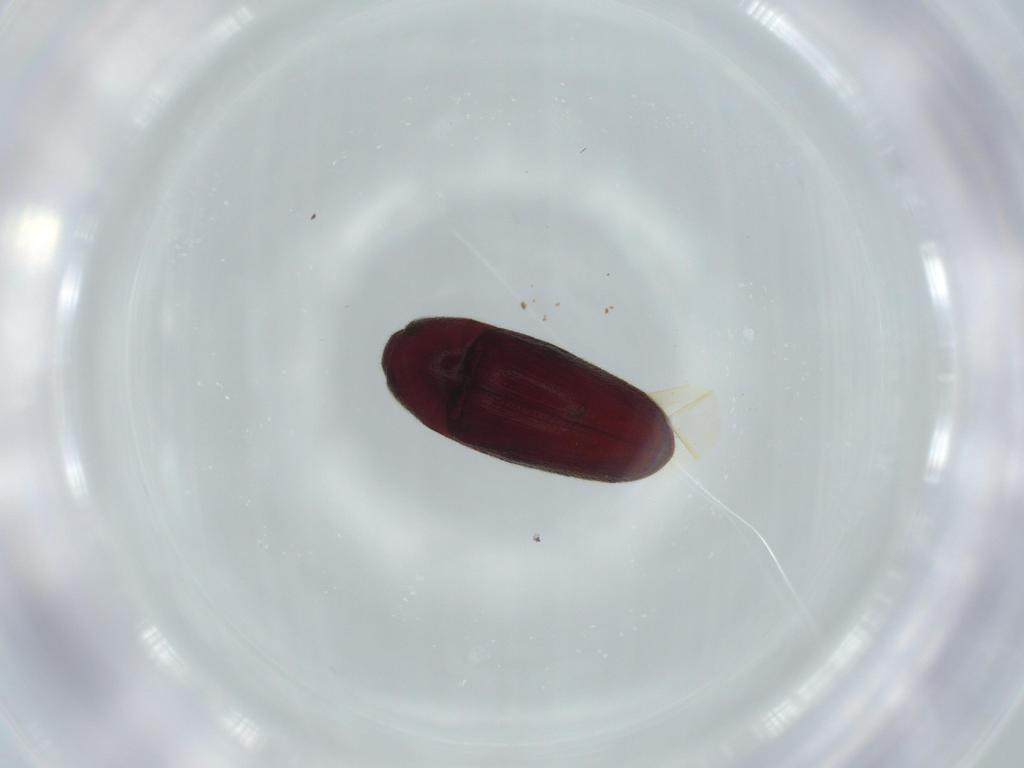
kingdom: Animalia
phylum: Arthropoda
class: Insecta
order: Coleoptera
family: Throscidae
